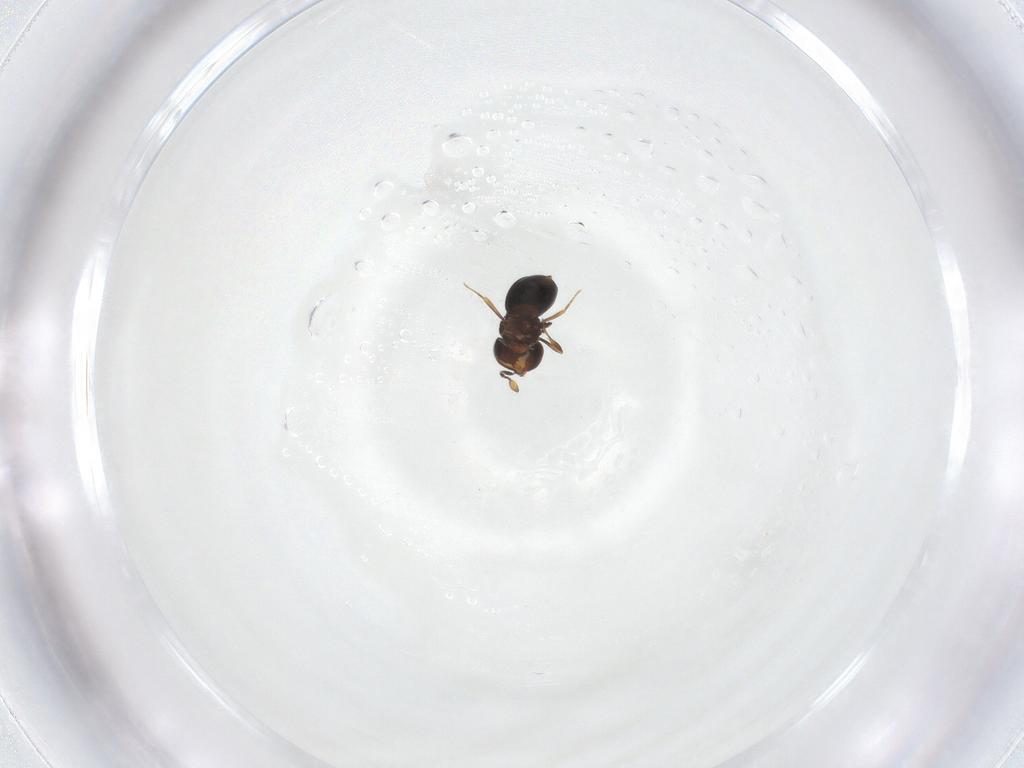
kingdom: Animalia
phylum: Arthropoda
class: Insecta
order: Hymenoptera
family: Scelionidae
